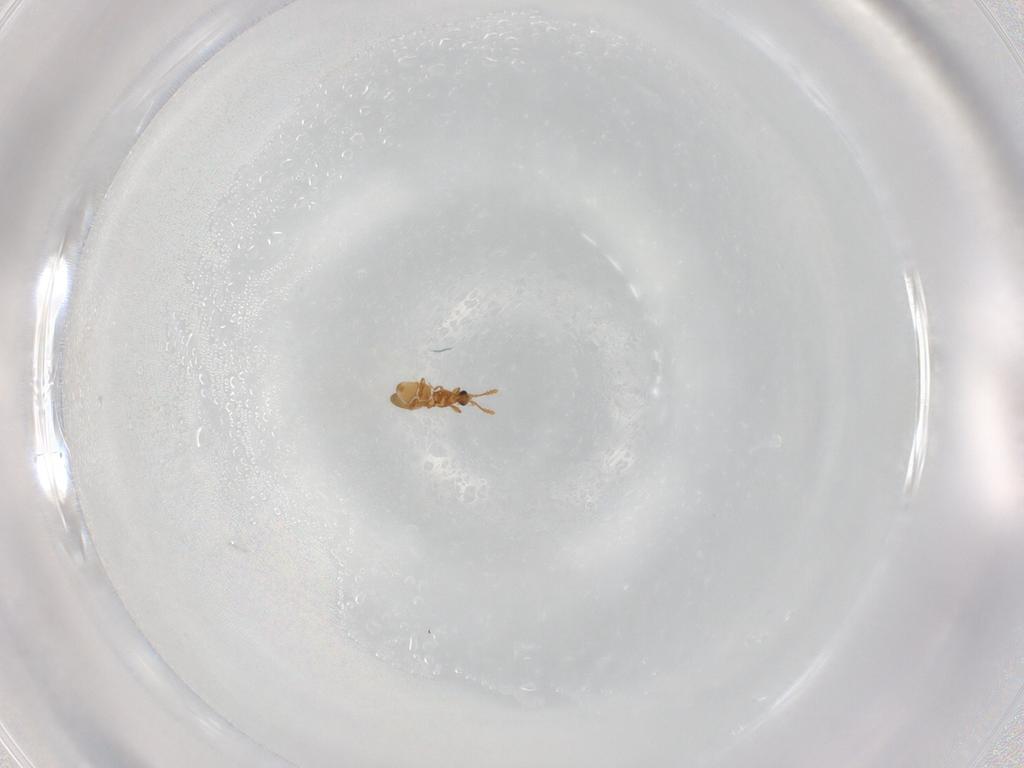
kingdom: Animalia
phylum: Arthropoda
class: Insecta
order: Coleoptera
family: Staphylinidae
